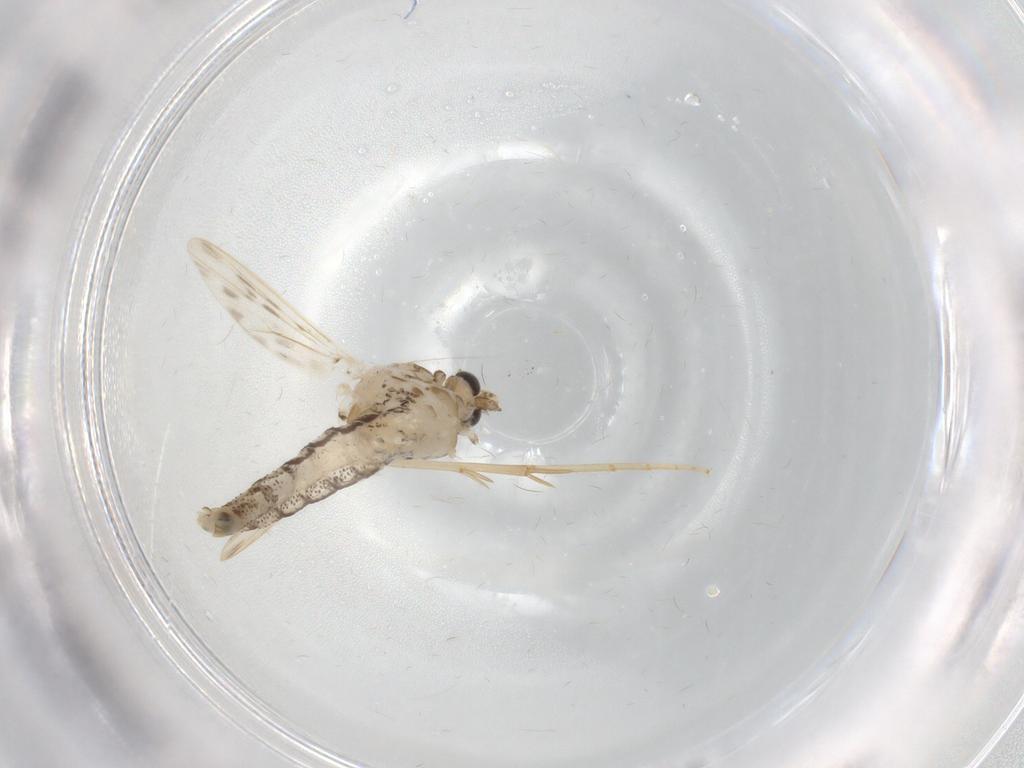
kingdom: Animalia
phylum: Arthropoda
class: Insecta
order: Diptera
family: Chaoboridae
